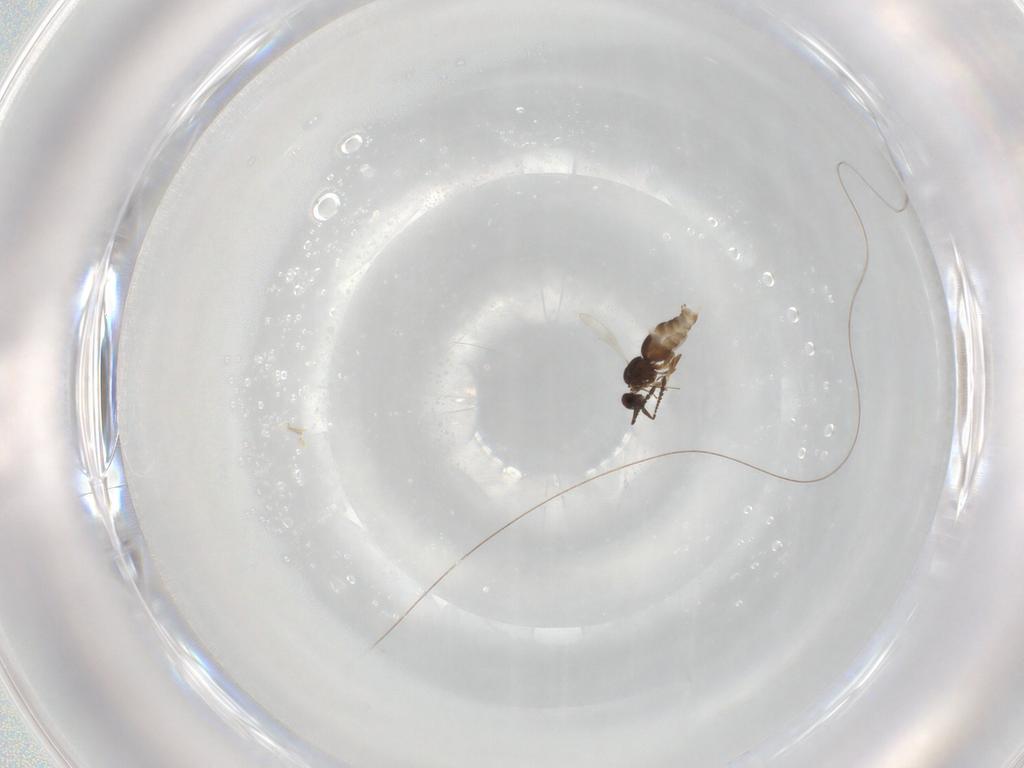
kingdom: Animalia
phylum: Arthropoda
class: Insecta
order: Hymenoptera
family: Ceraphronidae
